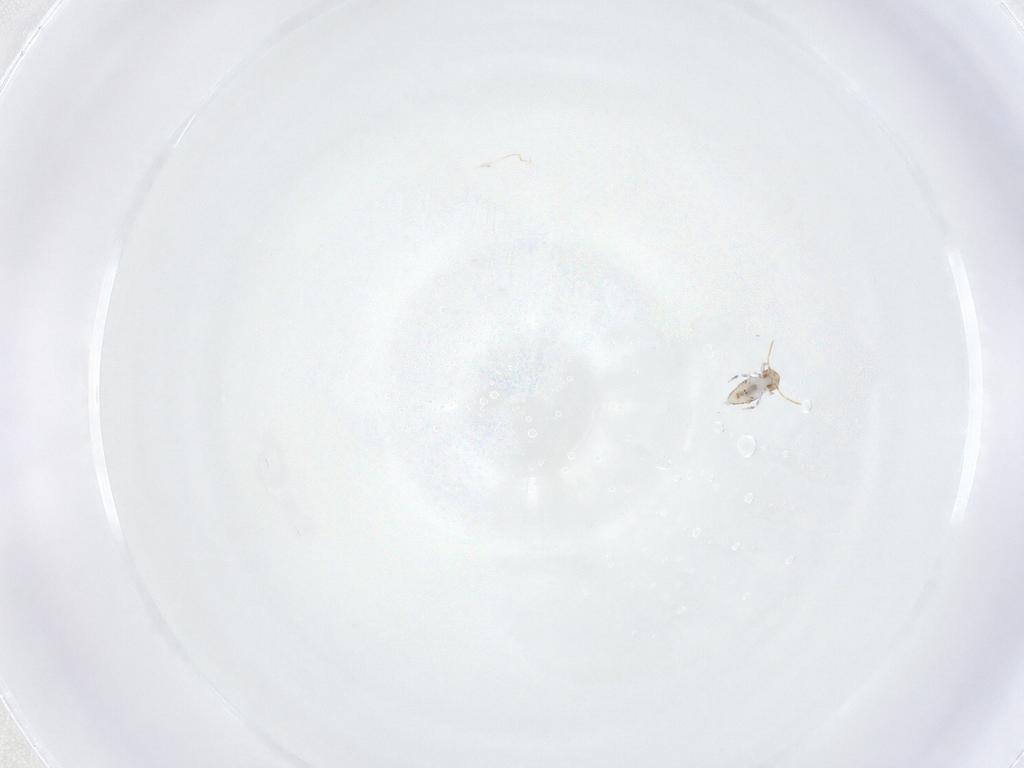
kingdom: Animalia
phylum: Arthropoda
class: Collembola
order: Symphypleona
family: Katiannidae
